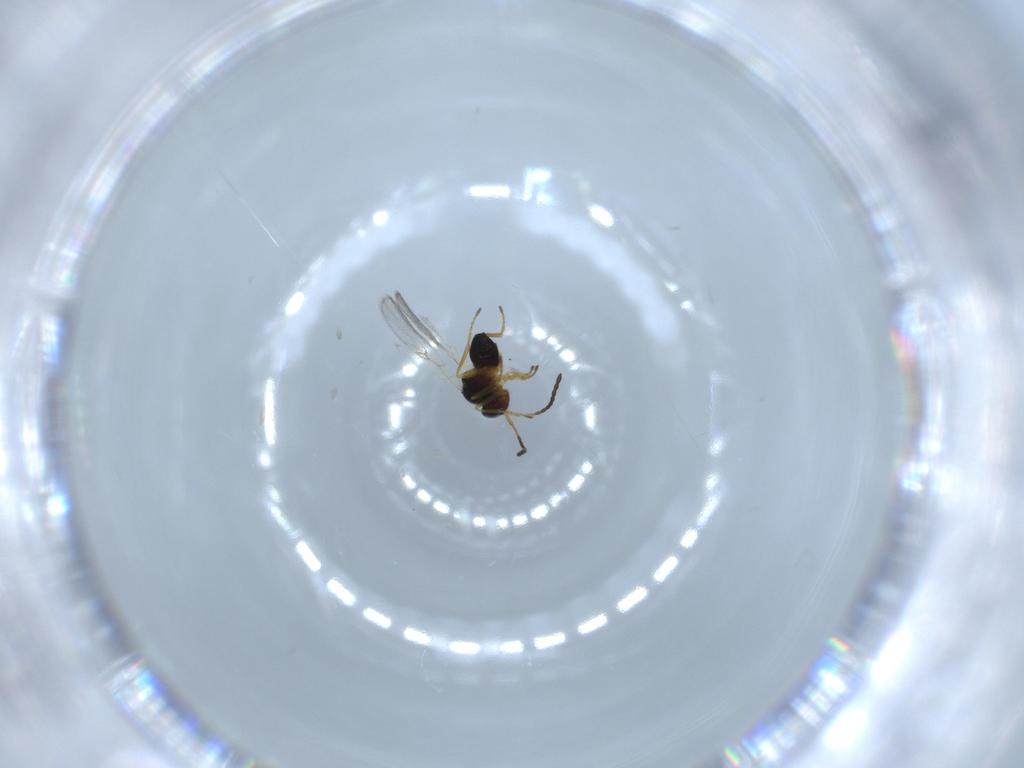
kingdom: Animalia
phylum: Arthropoda
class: Insecta
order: Hymenoptera
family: Figitidae
